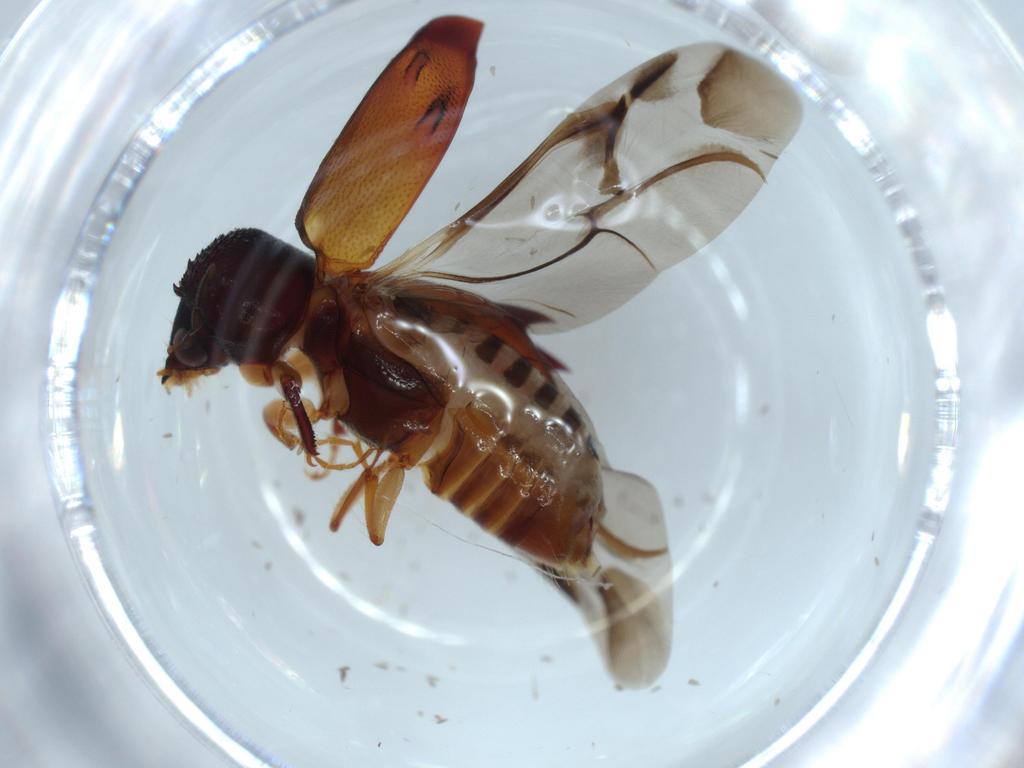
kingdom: Animalia
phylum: Arthropoda
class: Insecta
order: Coleoptera
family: Bostrichidae
